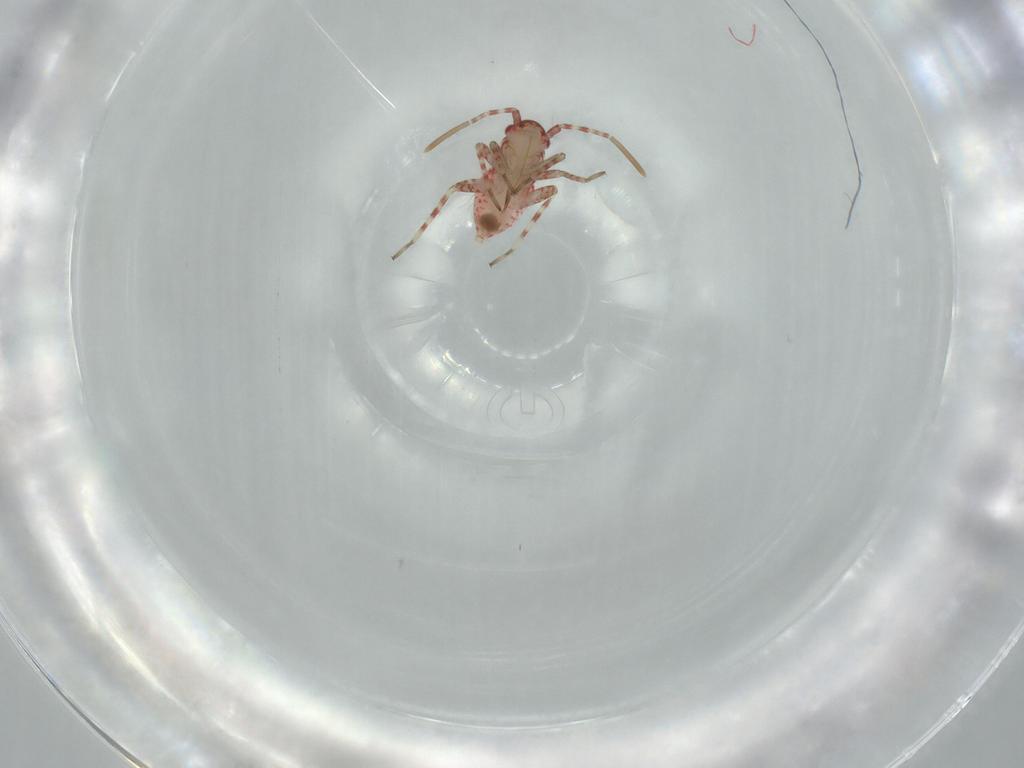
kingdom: Animalia
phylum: Arthropoda
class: Insecta
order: Hemiptera
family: Miridae
